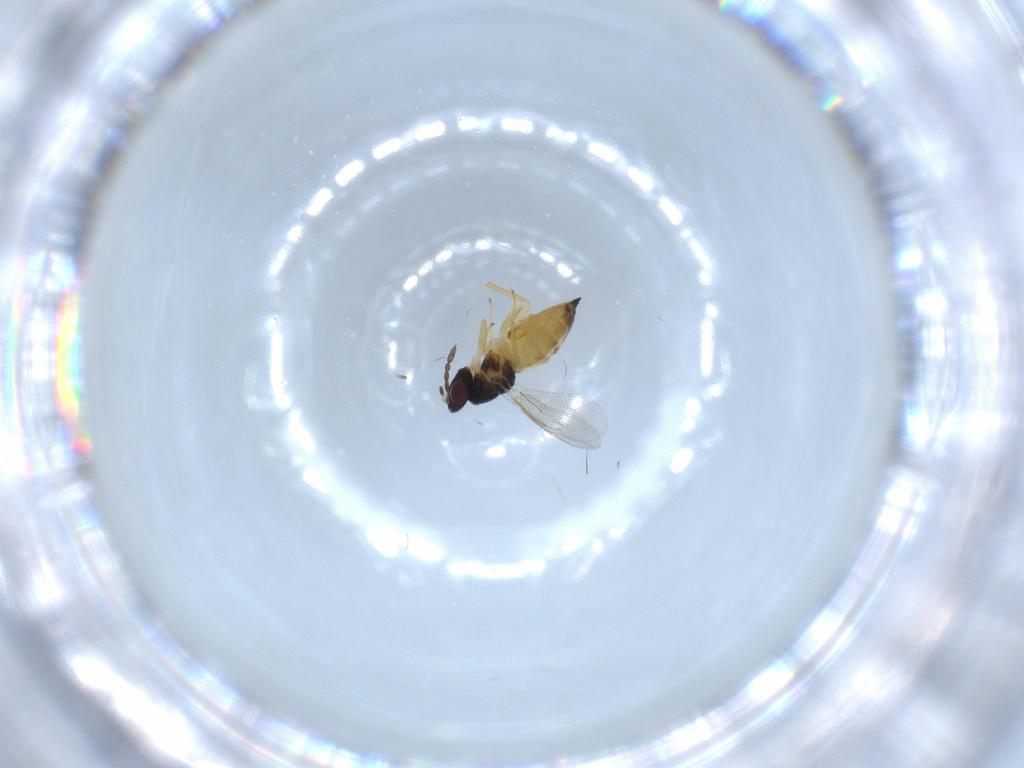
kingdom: Animalia
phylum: Arthropoda
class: Insecta
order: Hymenoptera
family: Eulophidae
